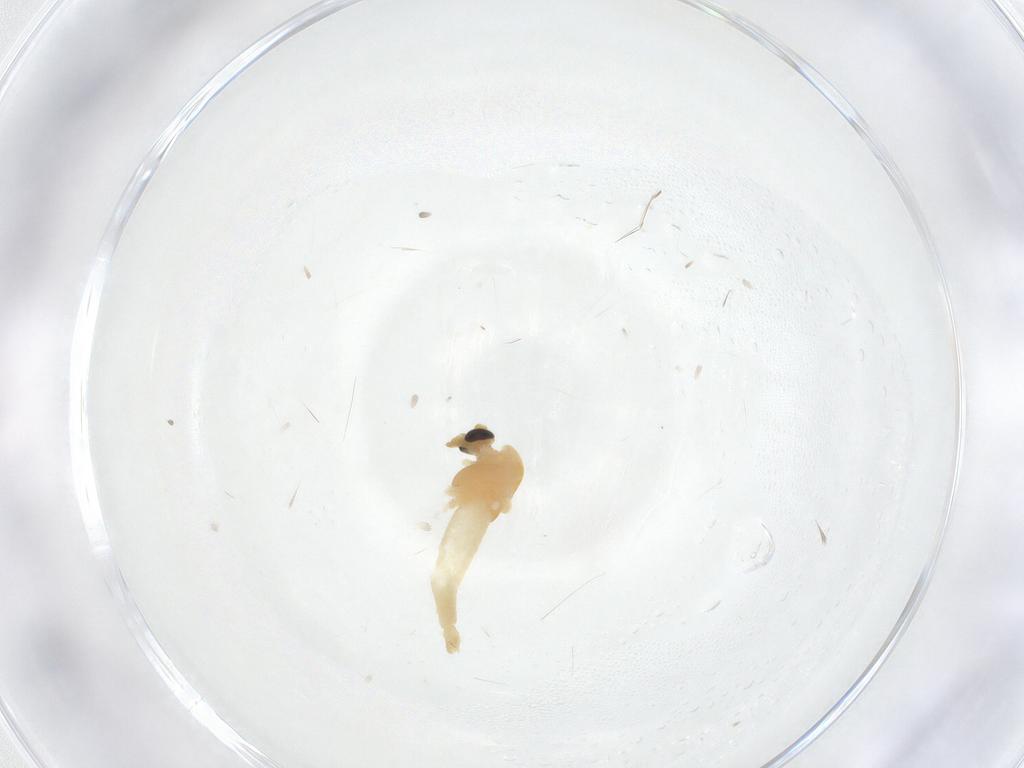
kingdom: Animalia
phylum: Arthropoda
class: Insecta
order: Diptera
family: Chironomidae
